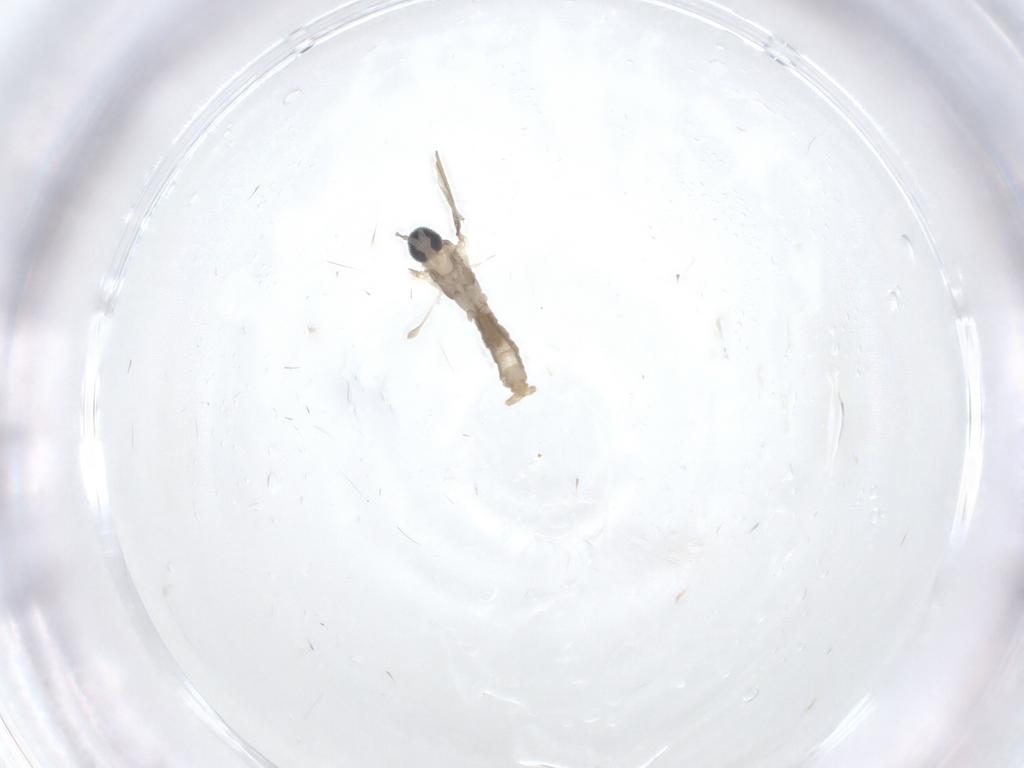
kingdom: Animalia
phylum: Arthropoda
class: Insecta
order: Diptera
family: Cecidomyiidae
